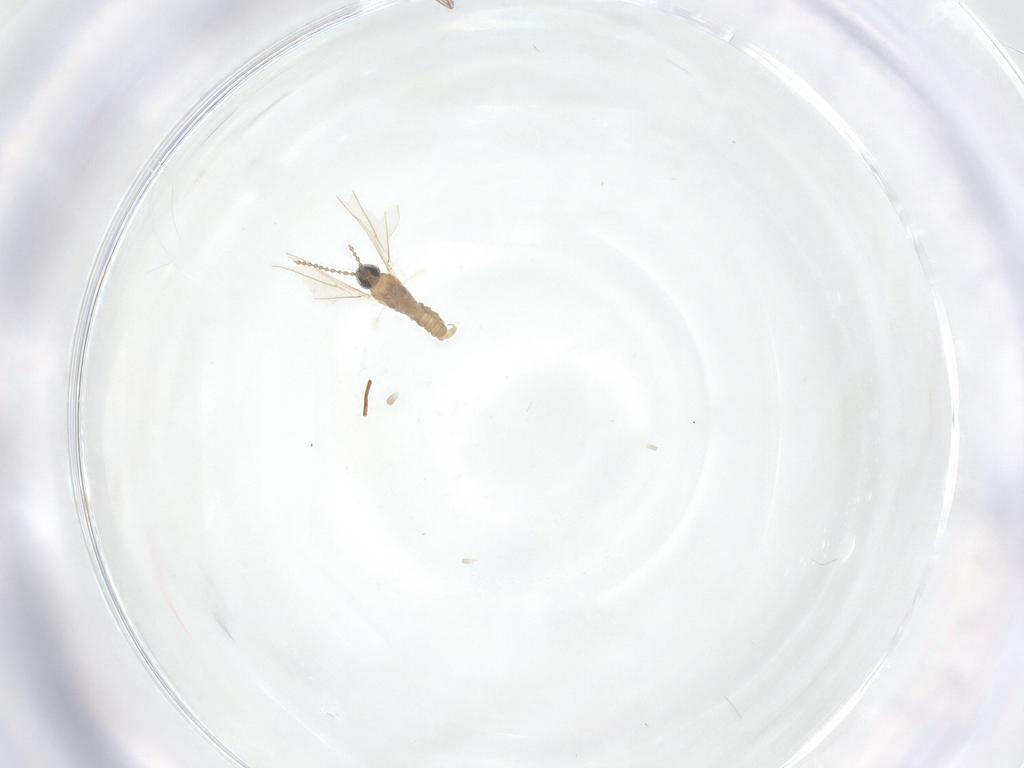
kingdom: Animalia
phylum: Arthropoda
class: Insecta
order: Diptera
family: Cecidomyiidae
